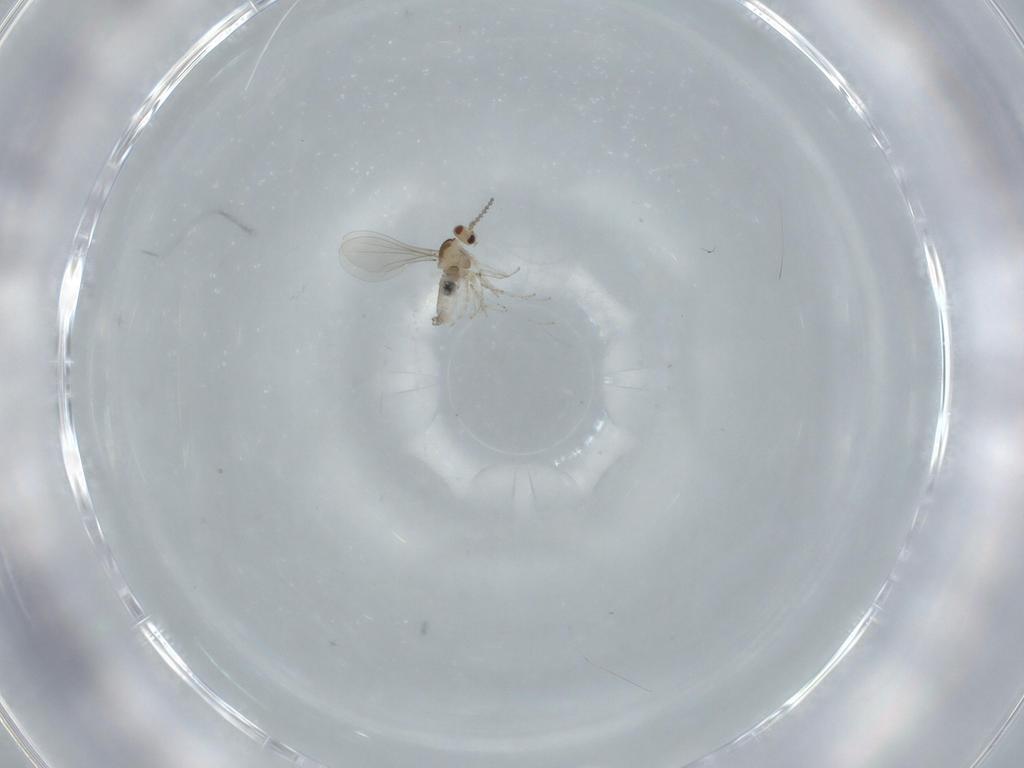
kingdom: Animalia
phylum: Arthropoda
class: Insecta
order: Diptera
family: Cecidomyiidae
